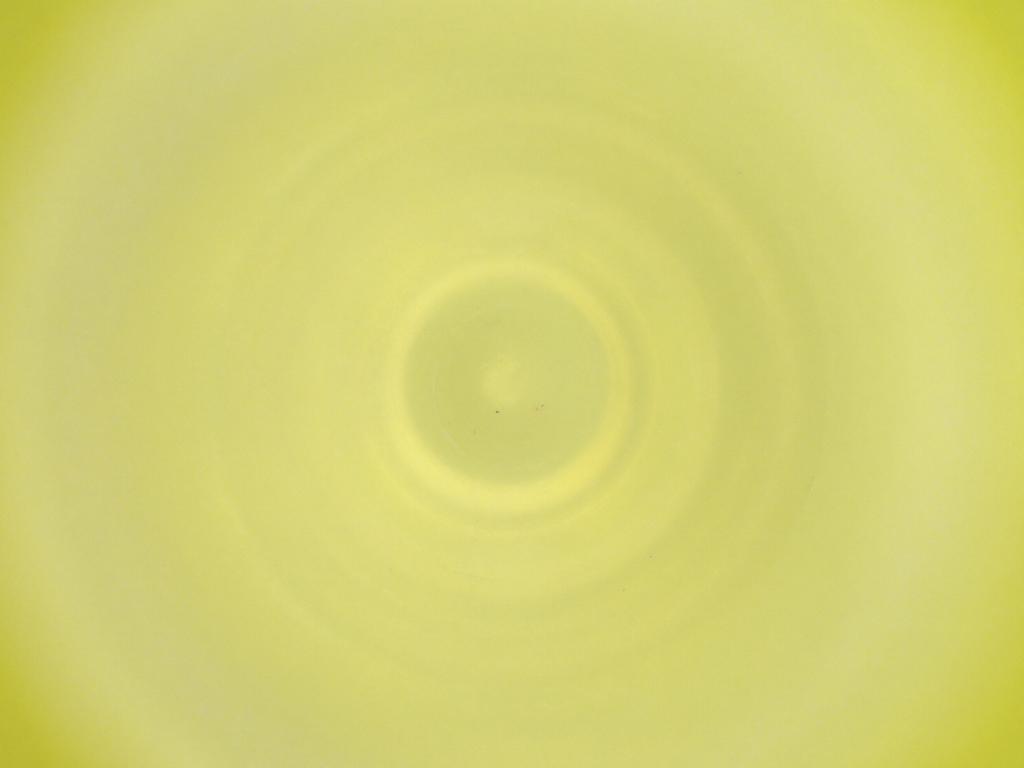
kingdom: Animalia
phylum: Arthropoda
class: Insecta
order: Diptera
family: Cecidomyiidae
